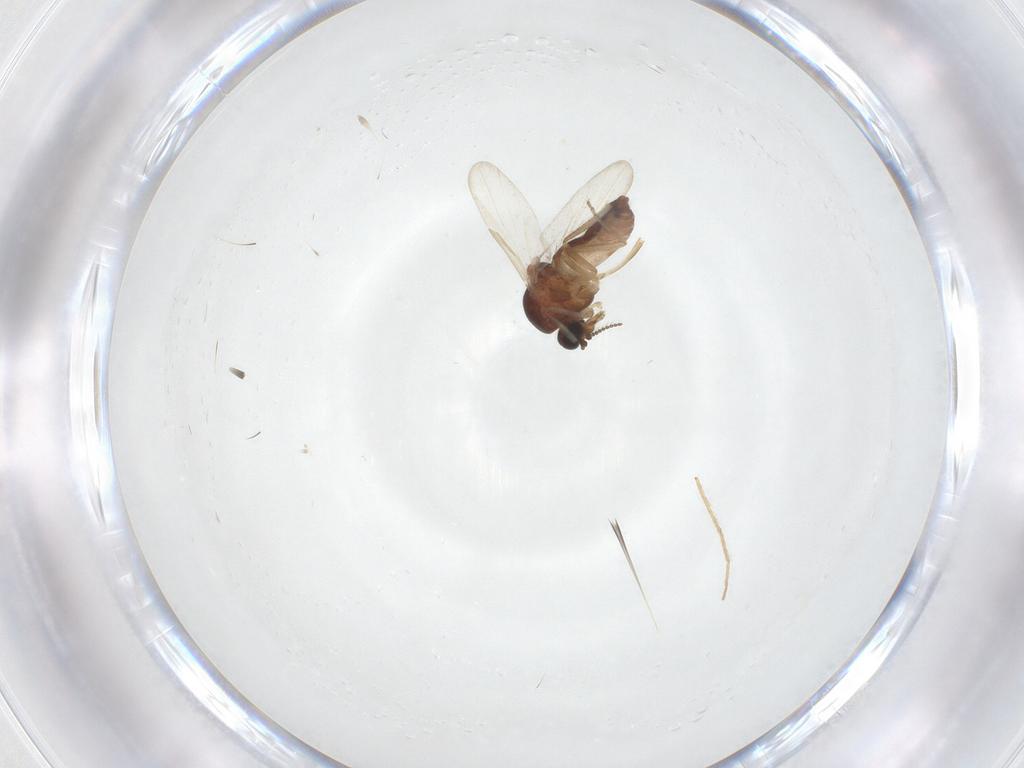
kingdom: Animalia
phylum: Arthropoda
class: Insecta
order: Diptera
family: Ceratopogonidae
